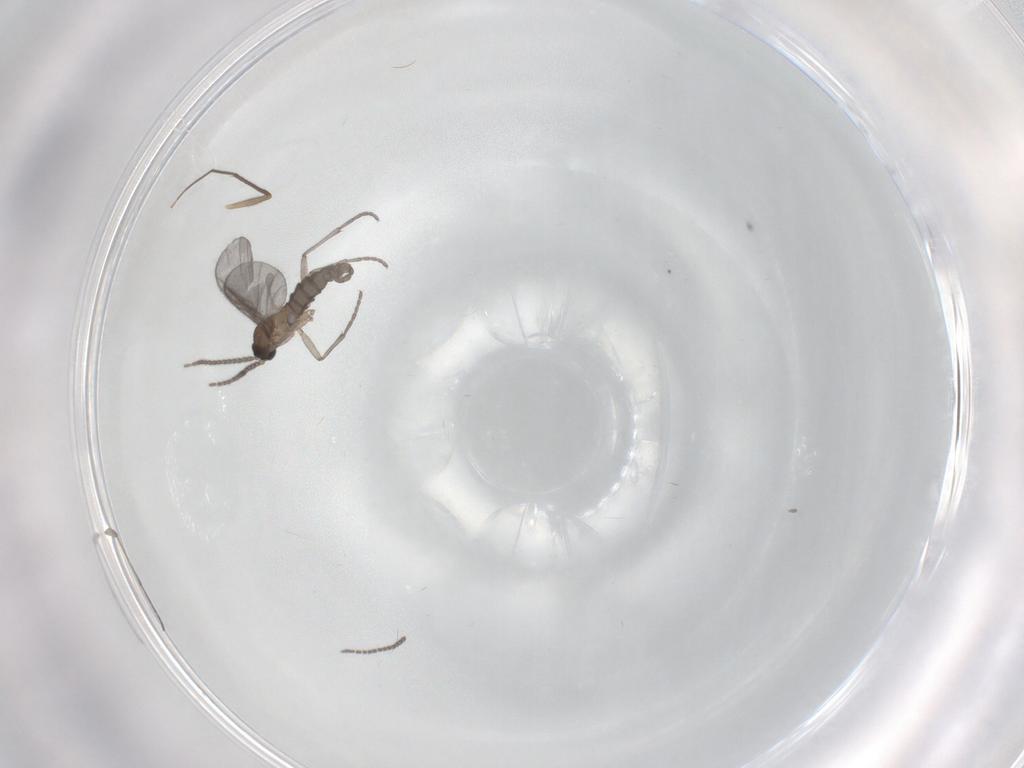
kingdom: Animalia
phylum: Arthropoda
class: Insecta
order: Diptera
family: Sciaridae
